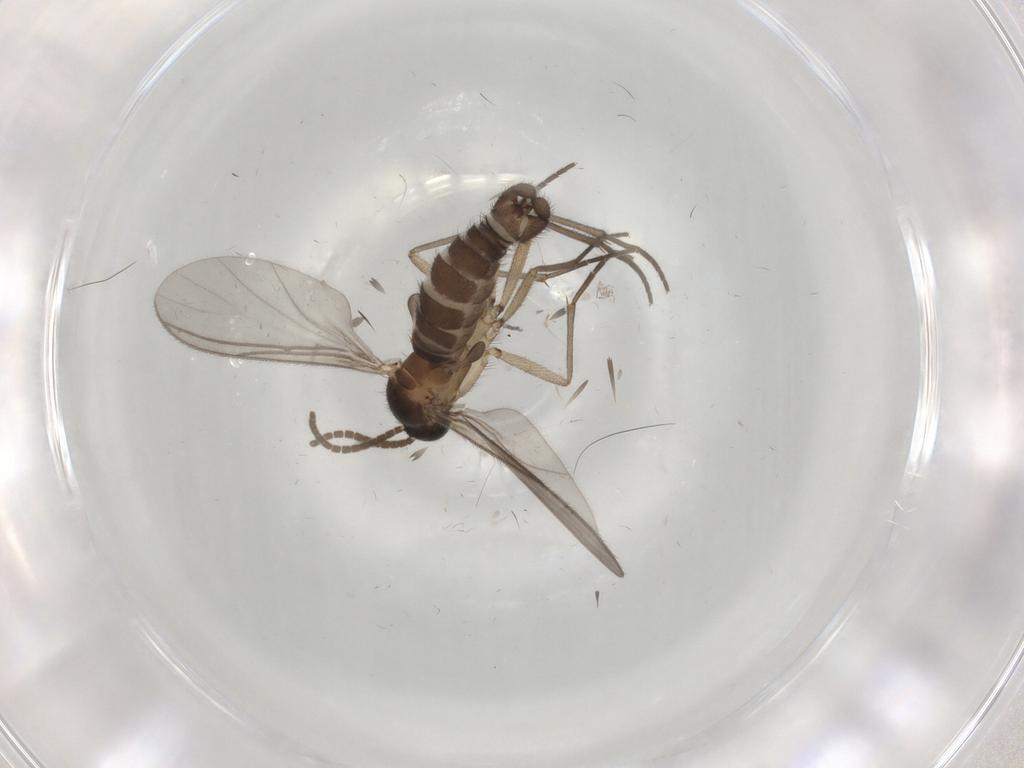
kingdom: Animalia
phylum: Arthropoda
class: Insecta
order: Diptera
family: Sciaridae
